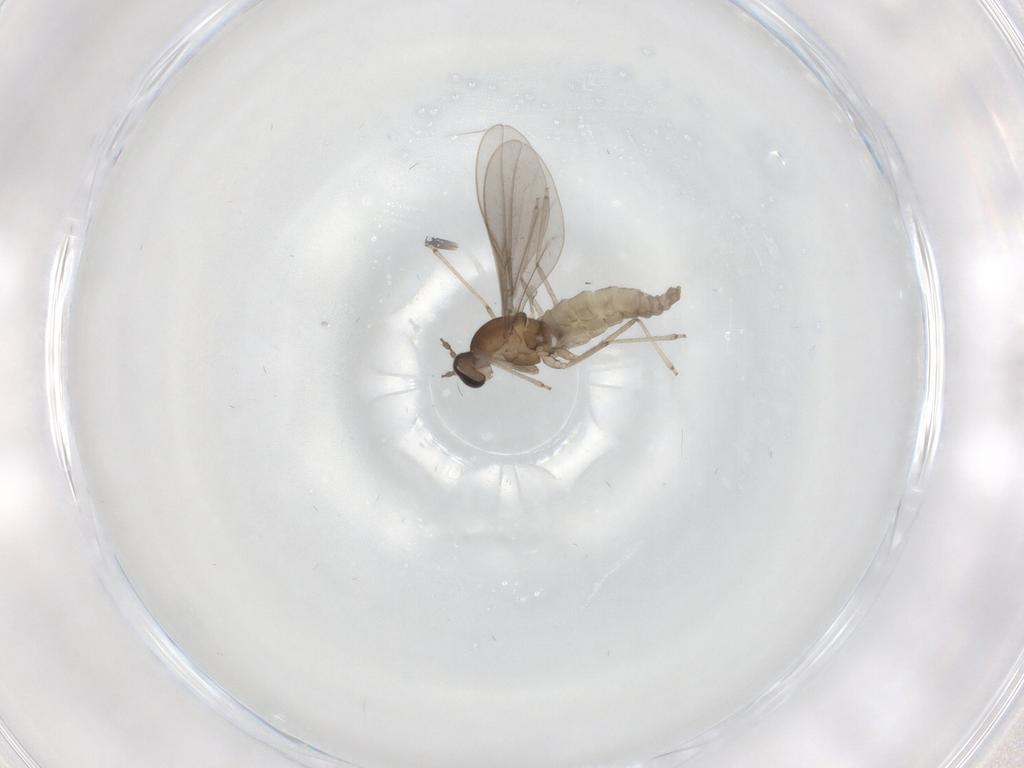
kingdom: Animalia
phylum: Arthropoda
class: Insecta
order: Diptera
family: Cecidomyiidae
